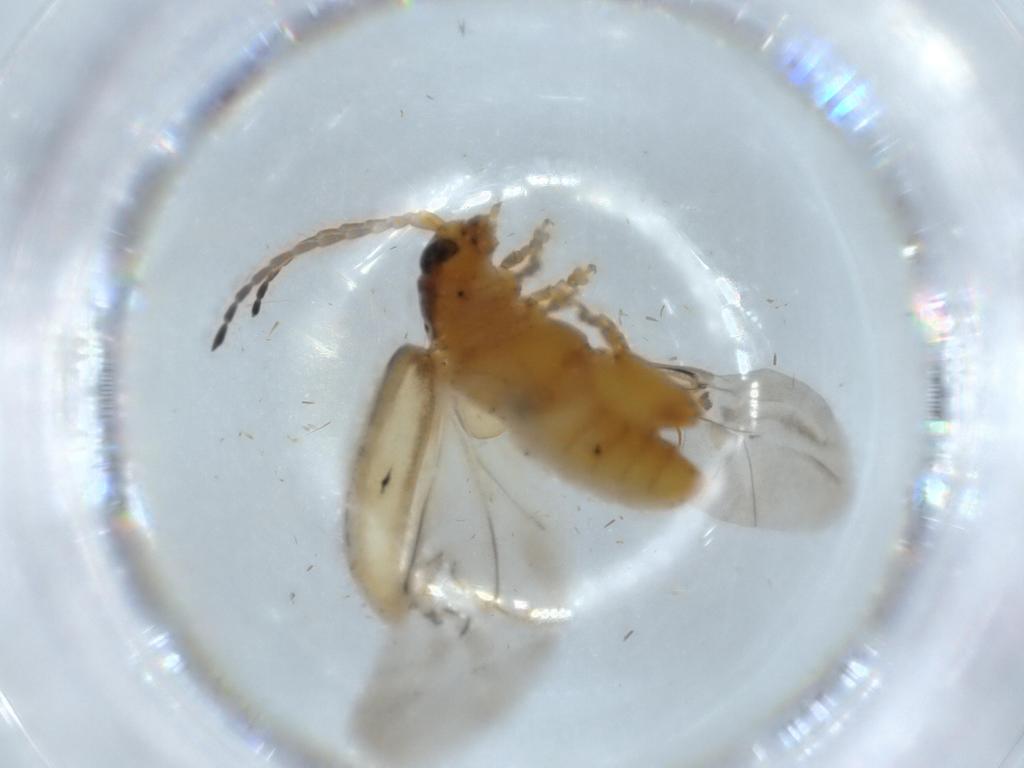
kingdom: Animalia
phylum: Arthropoda
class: Insecta
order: Coleoptera
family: Chrysomelidae
